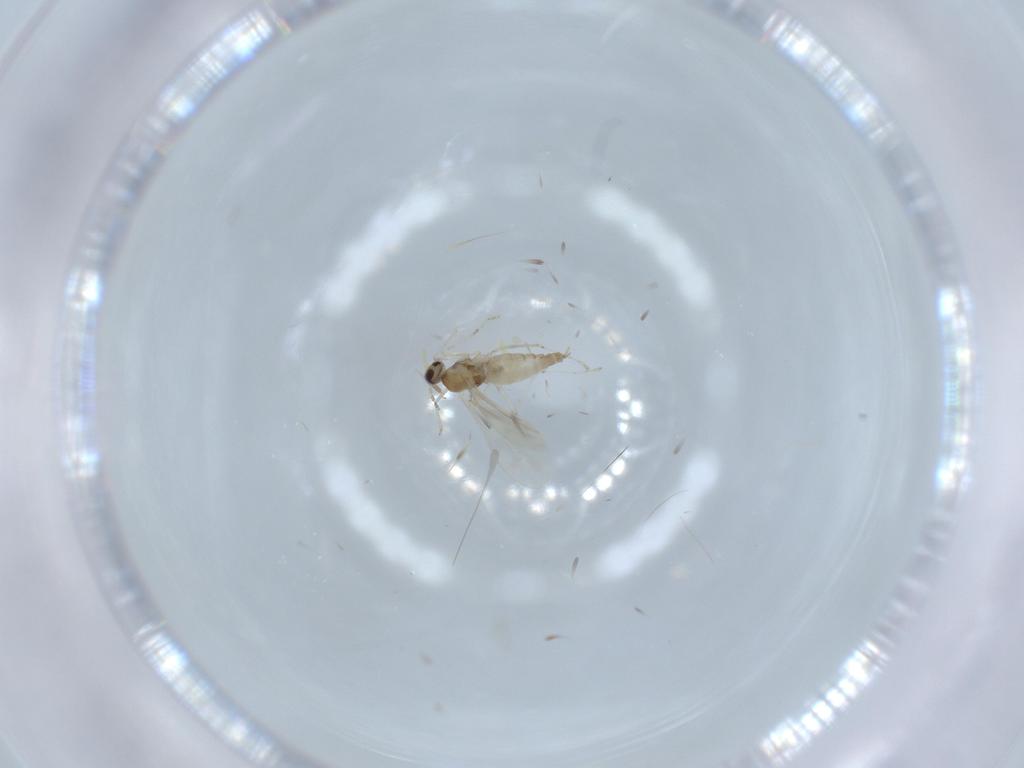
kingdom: Animalia
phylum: Arthropoda
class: Insecta
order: Diptera
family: Cecidomyiidae
